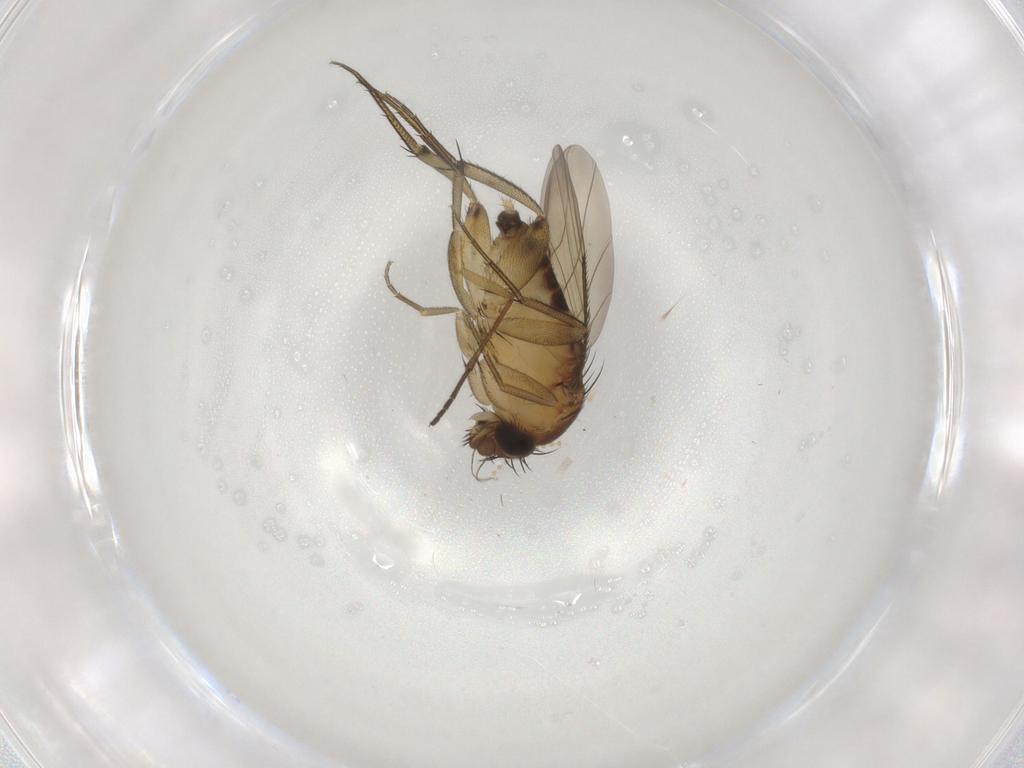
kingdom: Animalia
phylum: Arthropoda
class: Insecta
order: Diptera
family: Phoridae
